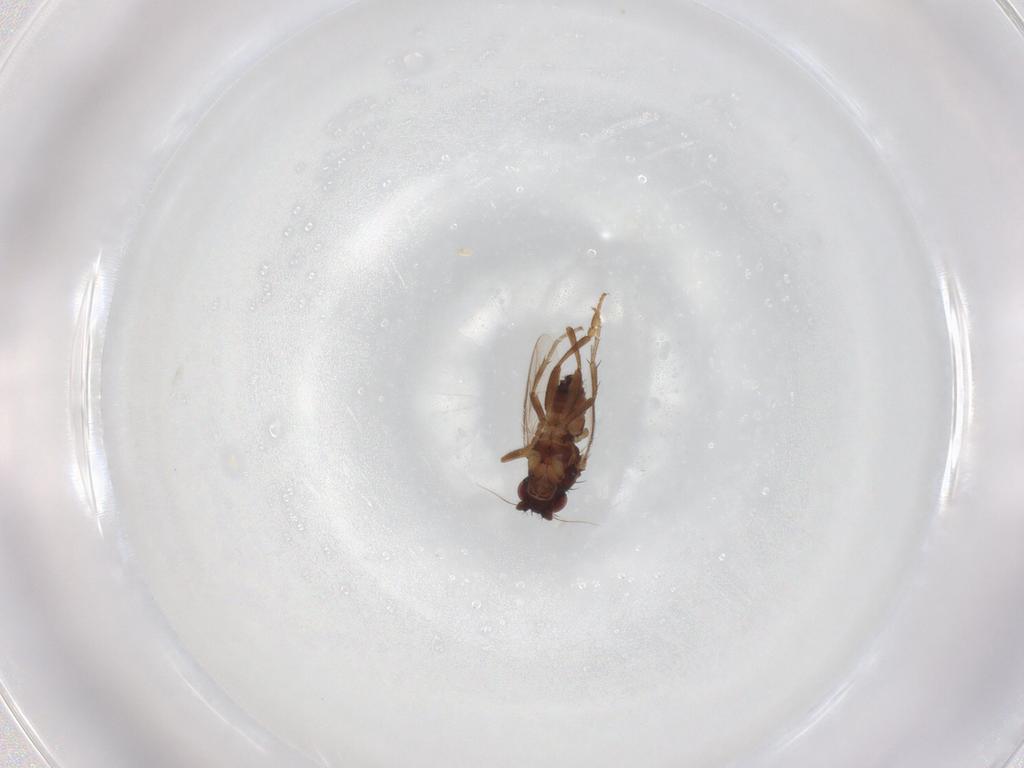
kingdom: Animalia
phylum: Arthropoda
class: Insecta
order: Diptera
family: Sphaeroceridae
